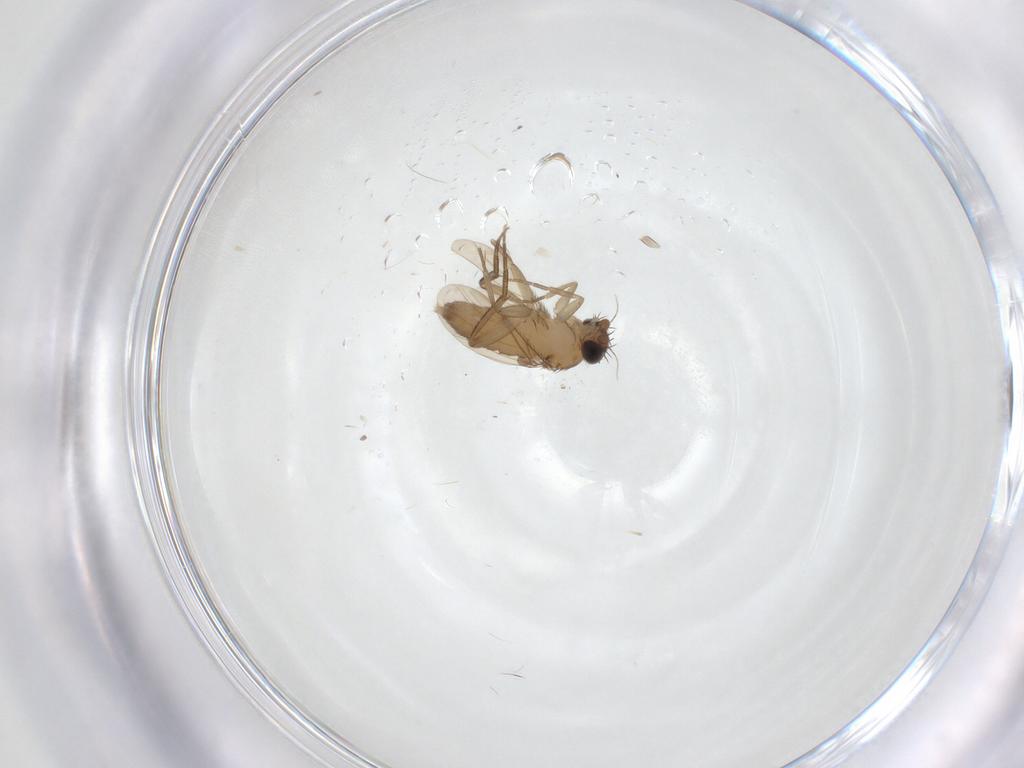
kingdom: Animalia
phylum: Arthropoda
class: Insecta
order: Diptera
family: Phoridae
